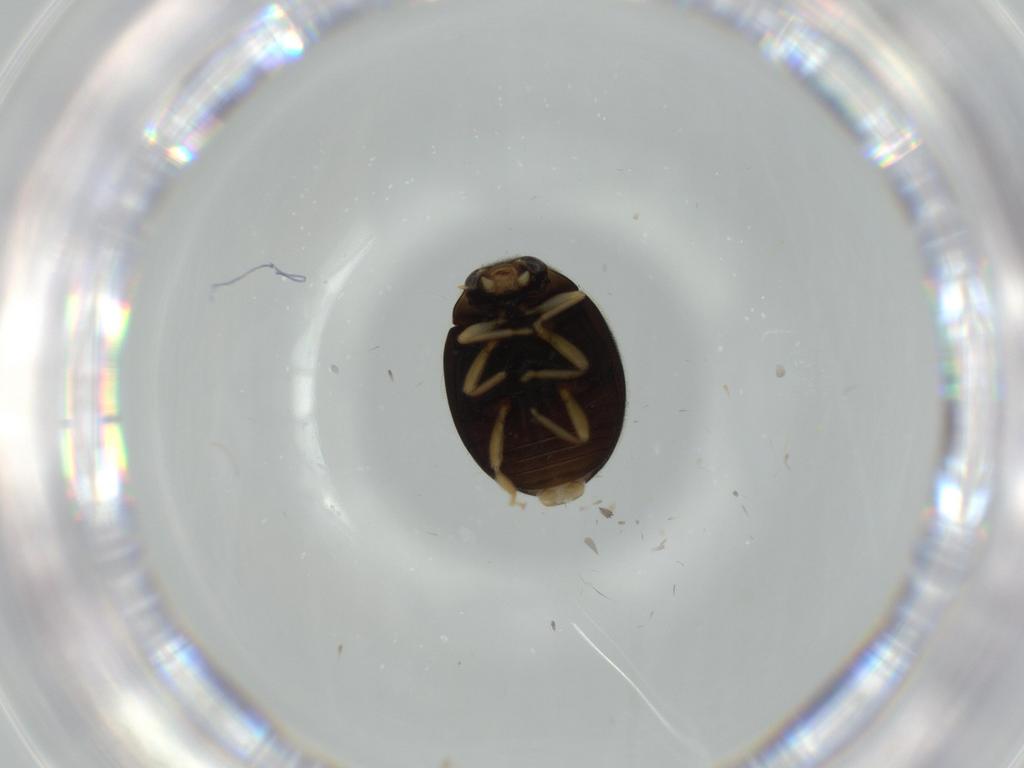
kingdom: Animalia
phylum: Arthropoda
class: Insecta
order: Coleoptera
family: Coccinellidae
